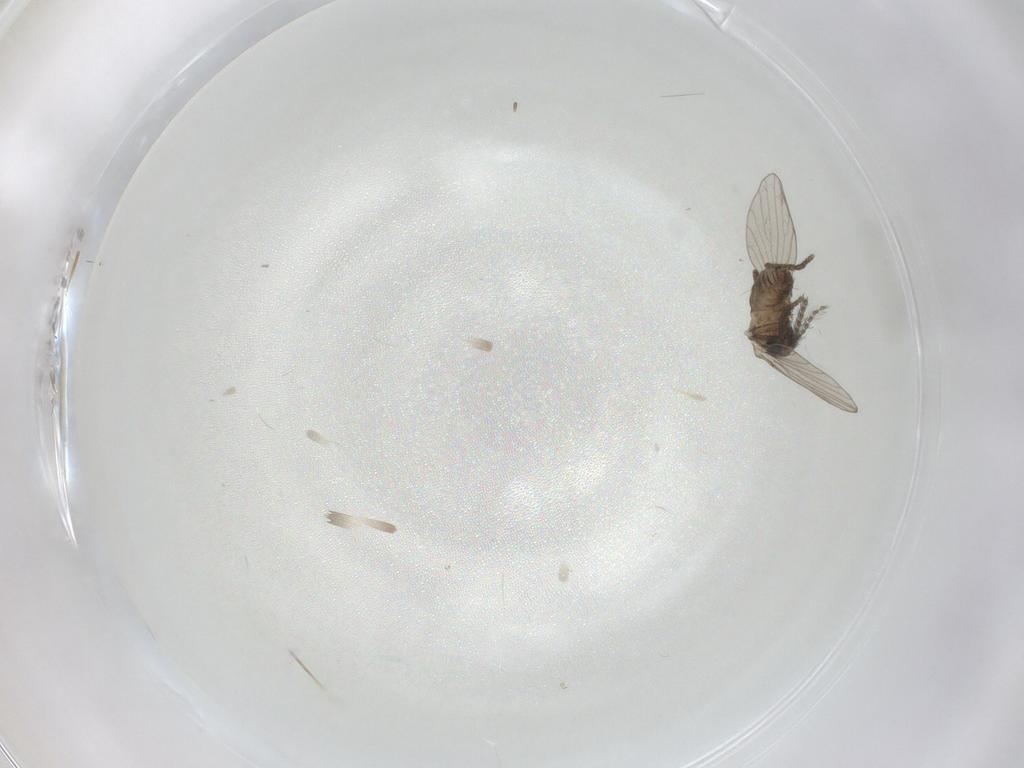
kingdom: Animalia
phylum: Arthropoda
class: Insecta
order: Diptera
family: Psychodidae
